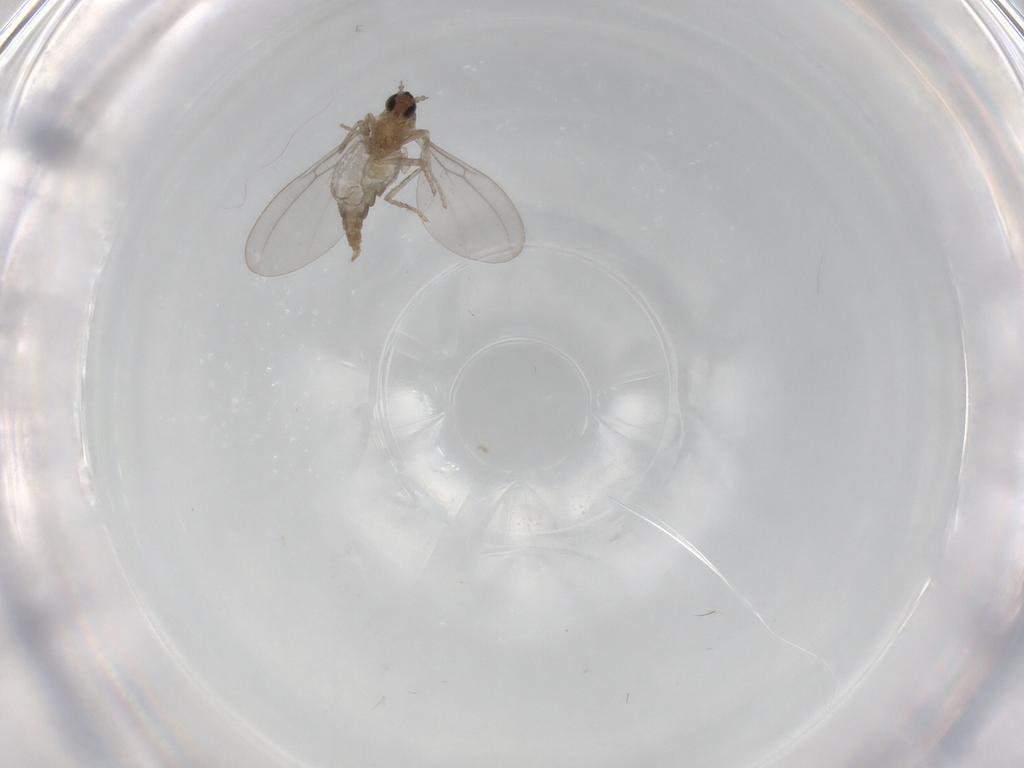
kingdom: Animalia
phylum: Arthropoda
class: Insecta
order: Diptera
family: Cecidomyiidae
